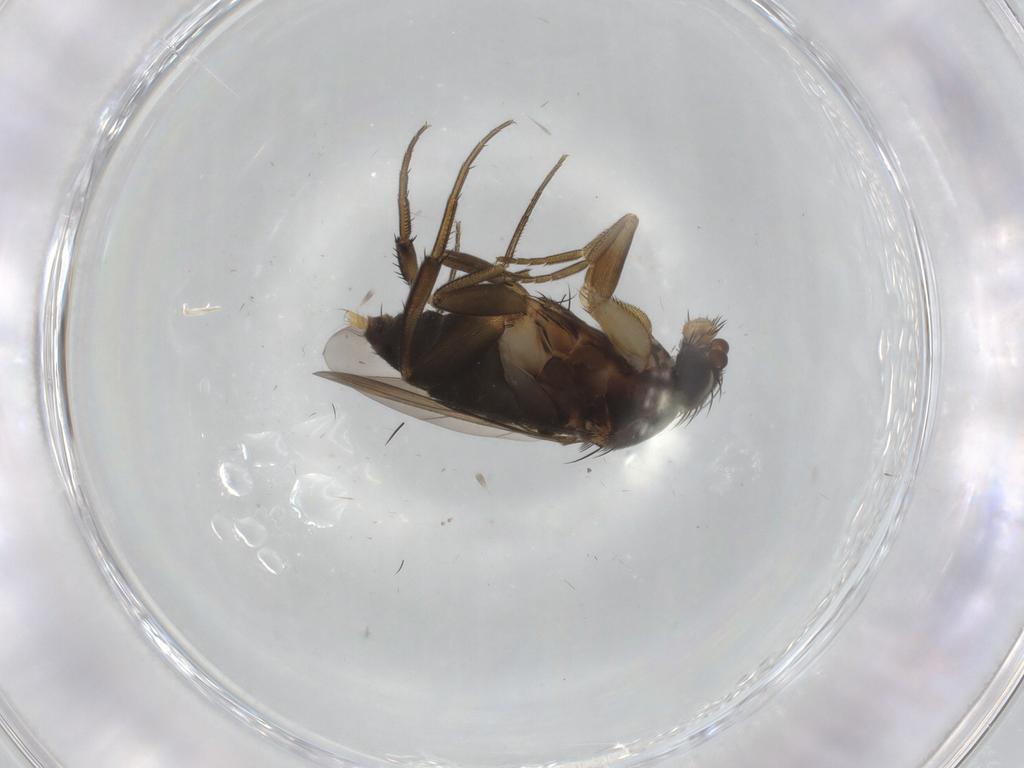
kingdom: Animalia
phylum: Arthropoda
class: Insecta
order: Diptera
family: Phoridae
